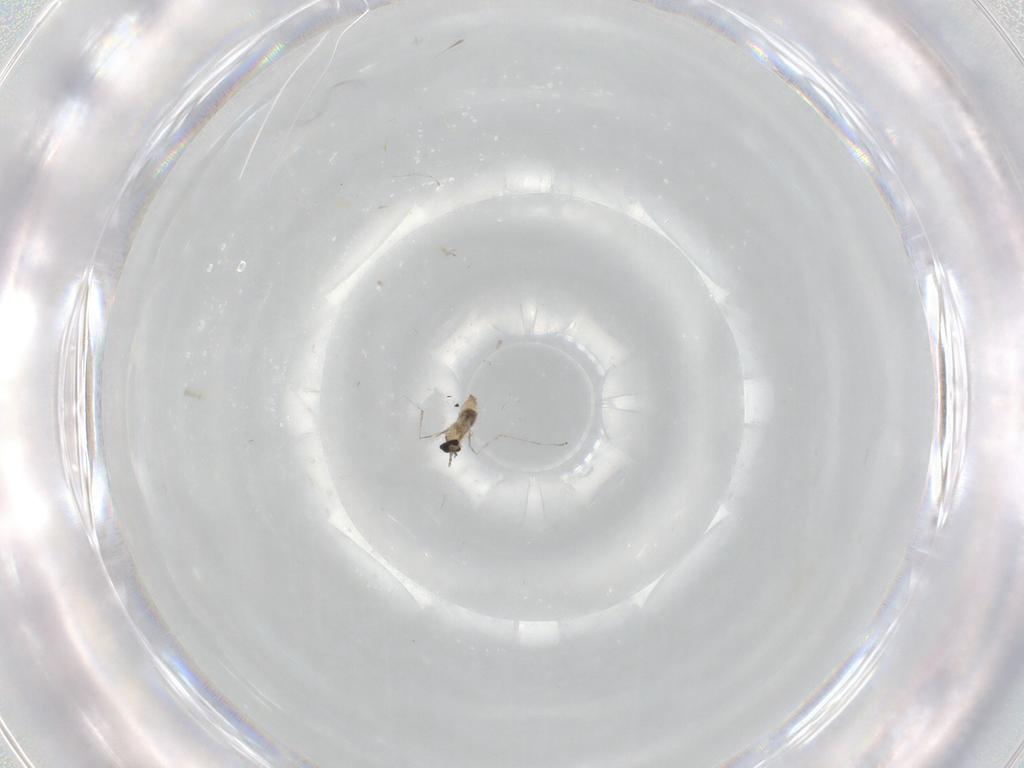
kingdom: Animalia
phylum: Arthropoda
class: Insecta
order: Diptera
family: Cecidomyiidae
